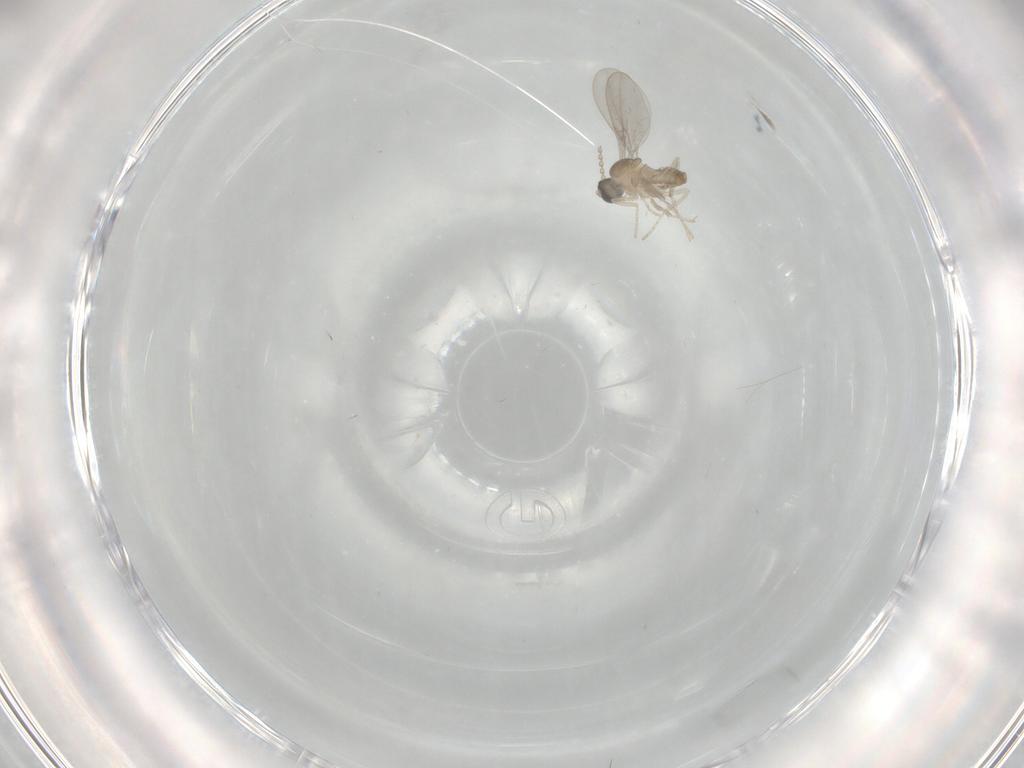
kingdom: Animalia
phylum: Arthropoda
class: Insecta
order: Diptera
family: Cecidomyiidae
